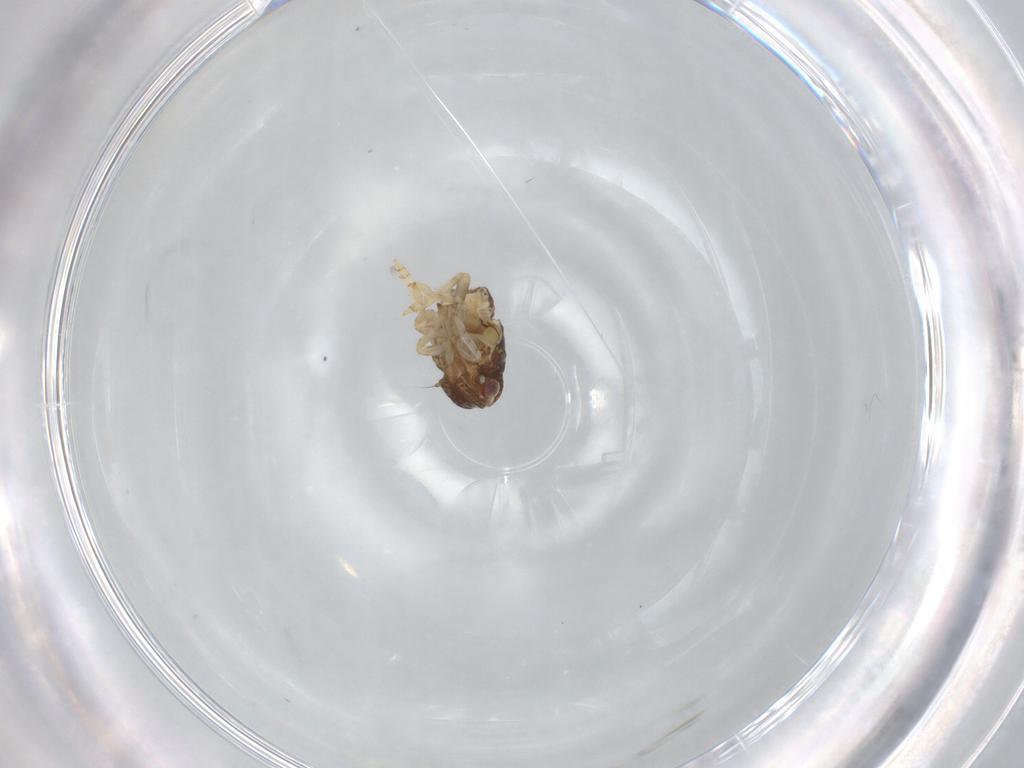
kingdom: Animalia
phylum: Arthropoda
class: Insecta
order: Hemiptera
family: Acanaloniidae
